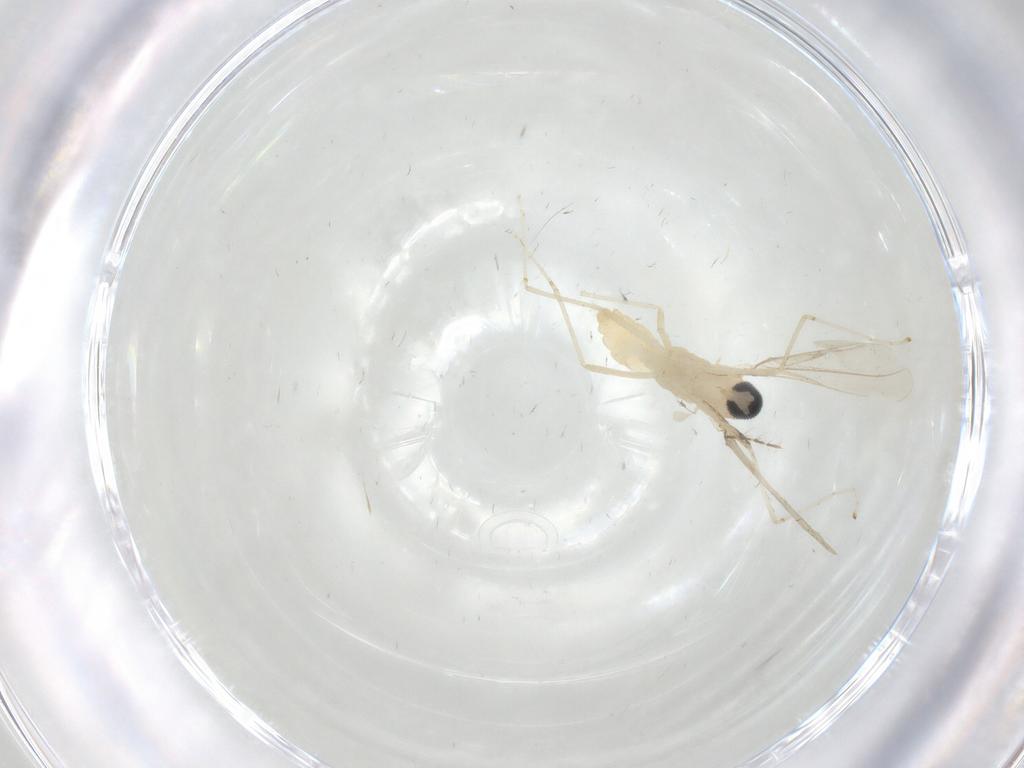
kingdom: Animalia
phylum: Arthropoda
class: Insecta
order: Diptera
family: Cecidomyiidae
